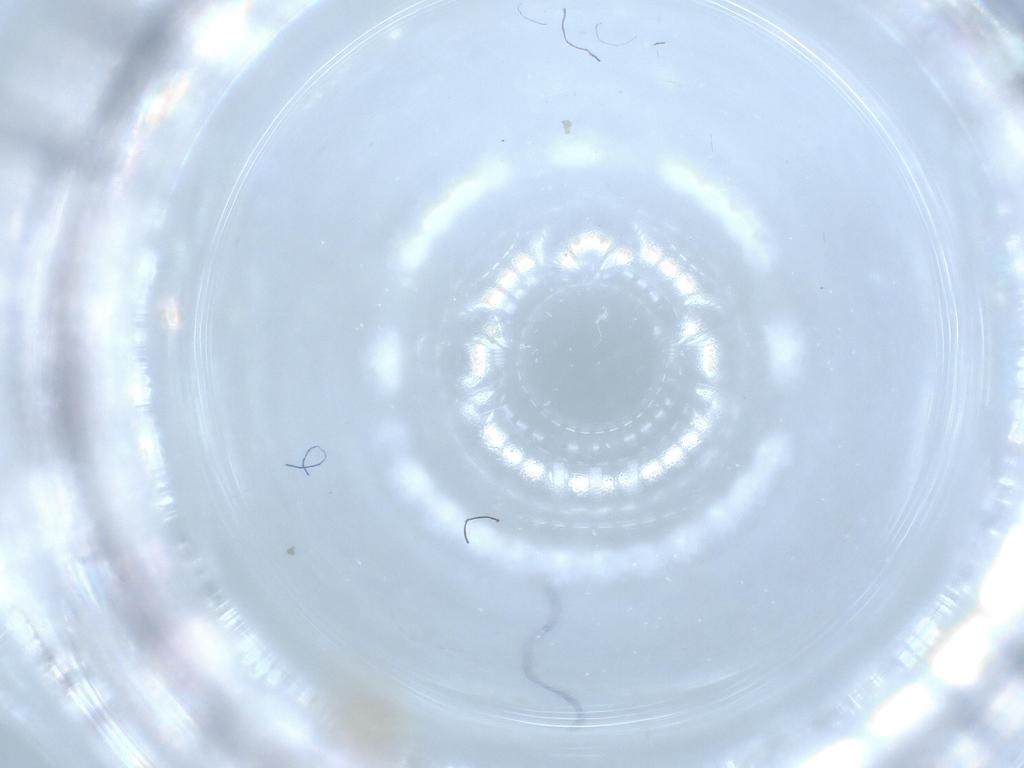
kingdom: Animalia
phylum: Arthropoda
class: Insecta
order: Diptera
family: Cecidomyiidae
